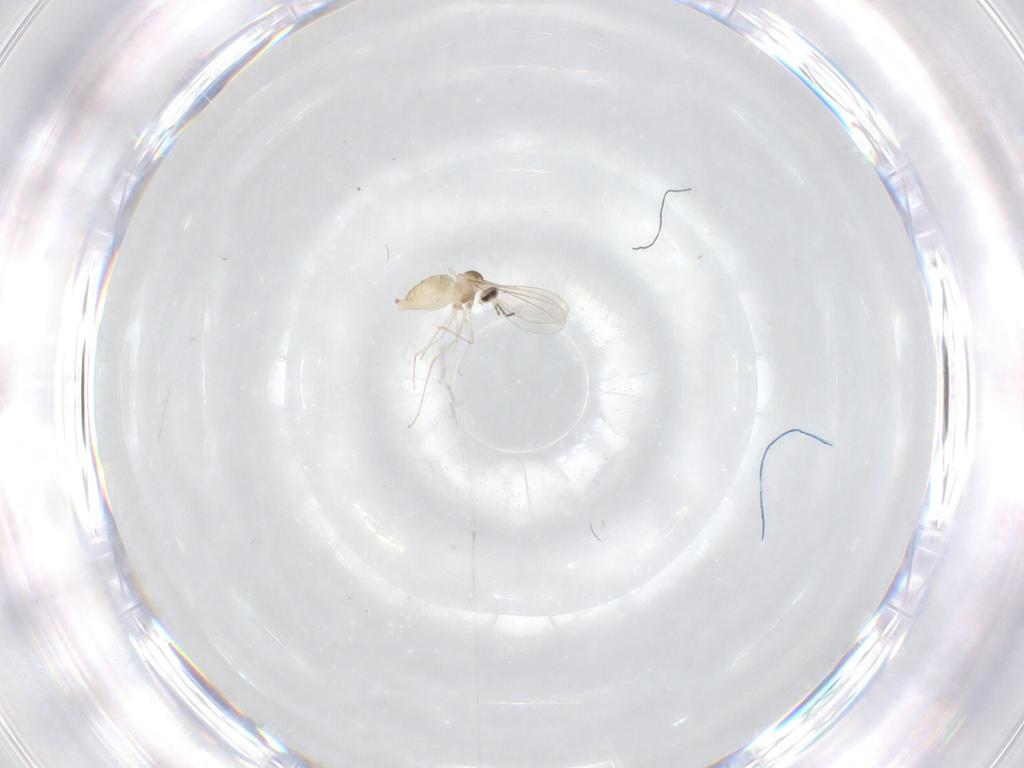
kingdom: Animalia
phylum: Arthropoda
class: Insecta
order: Diptera
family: Cecidomyiidae
